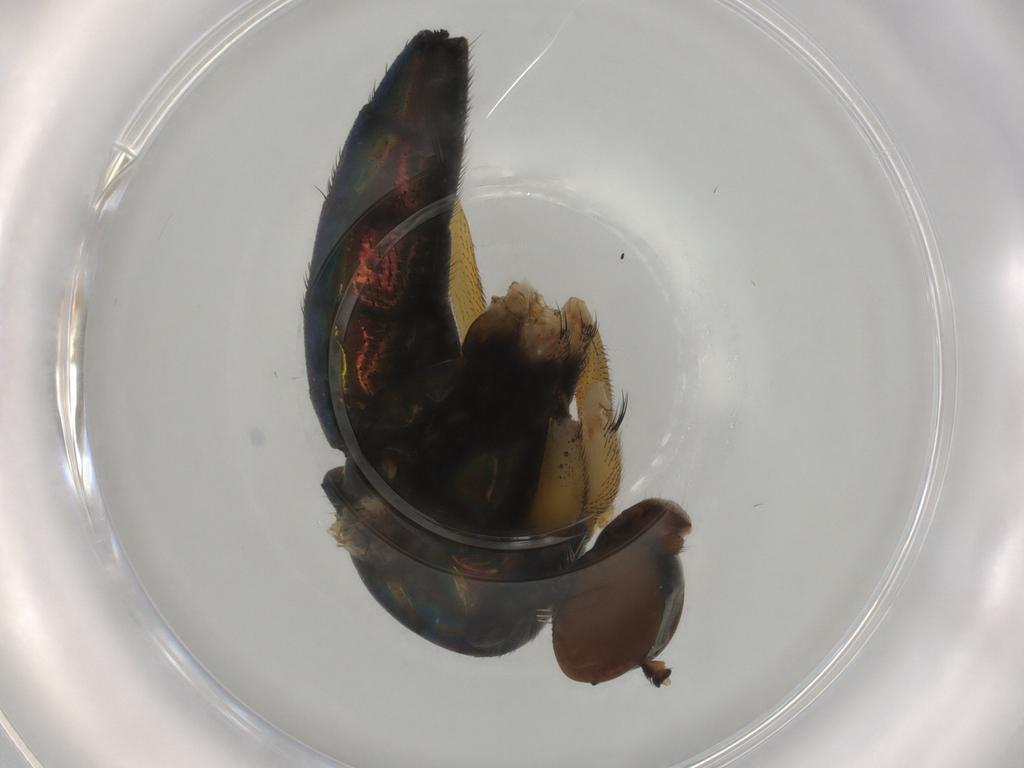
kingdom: Animalia
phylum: Arthropoda
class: Insecta
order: Diptera
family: Dolichopodidae
